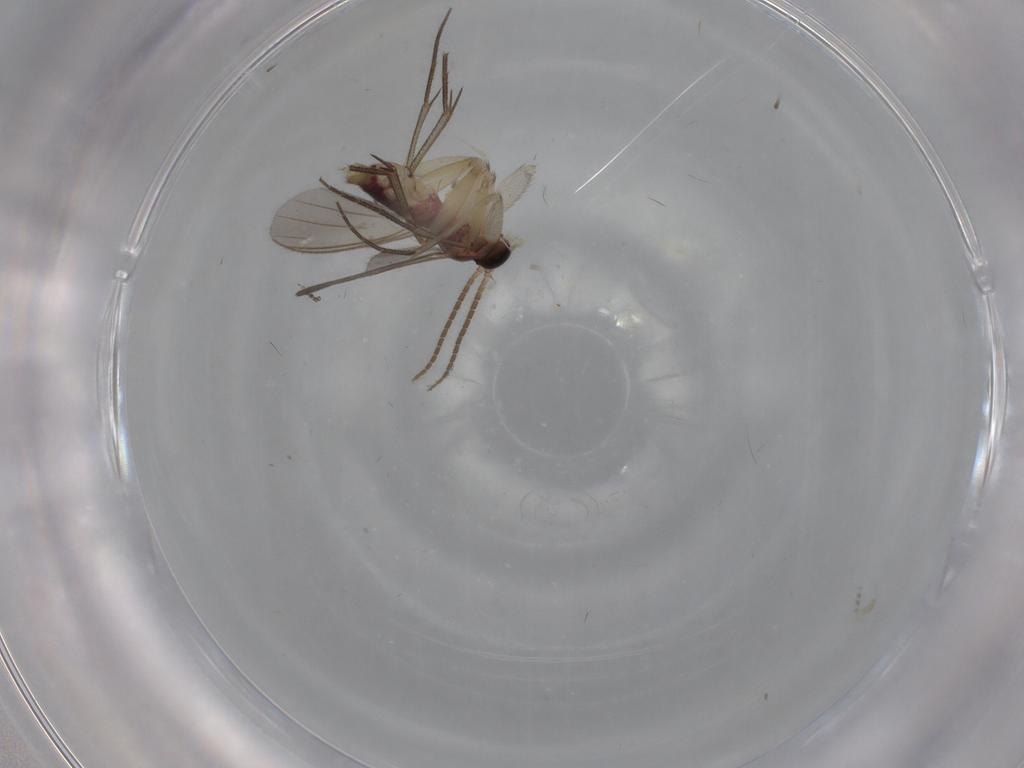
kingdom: Animalia
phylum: Arthropoda
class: Insecta
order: Diptera
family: Mycetophilidae
